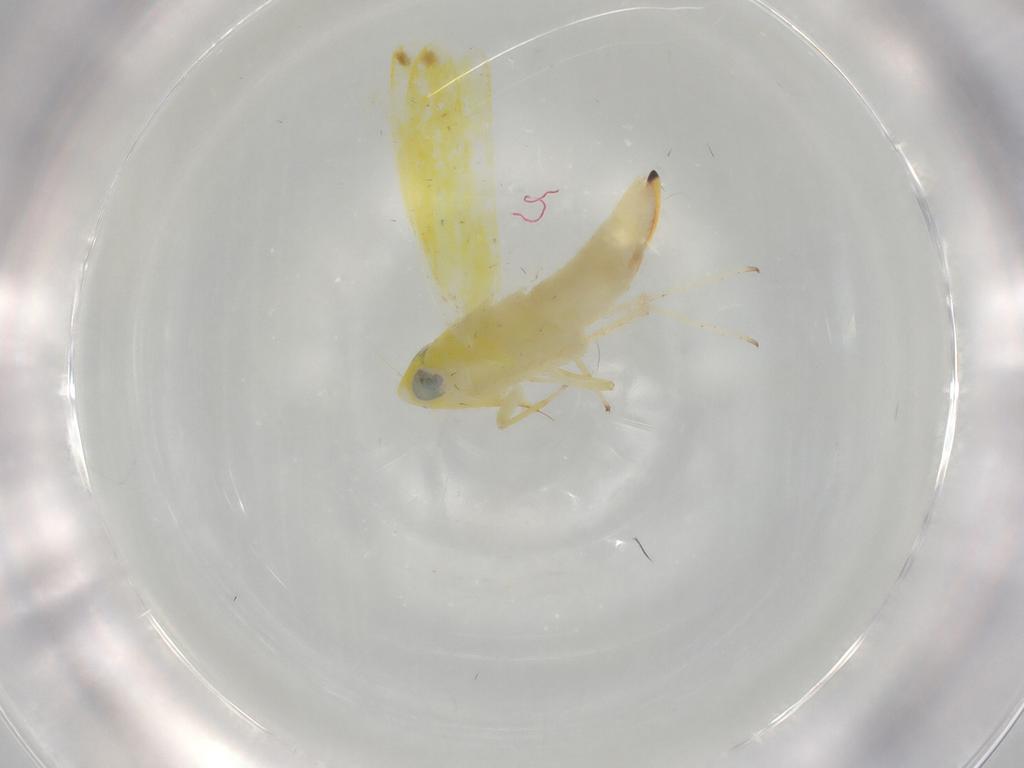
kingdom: Animalia
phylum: Arthropoda
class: Insecta
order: Hemiptera
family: Cicadellidae
